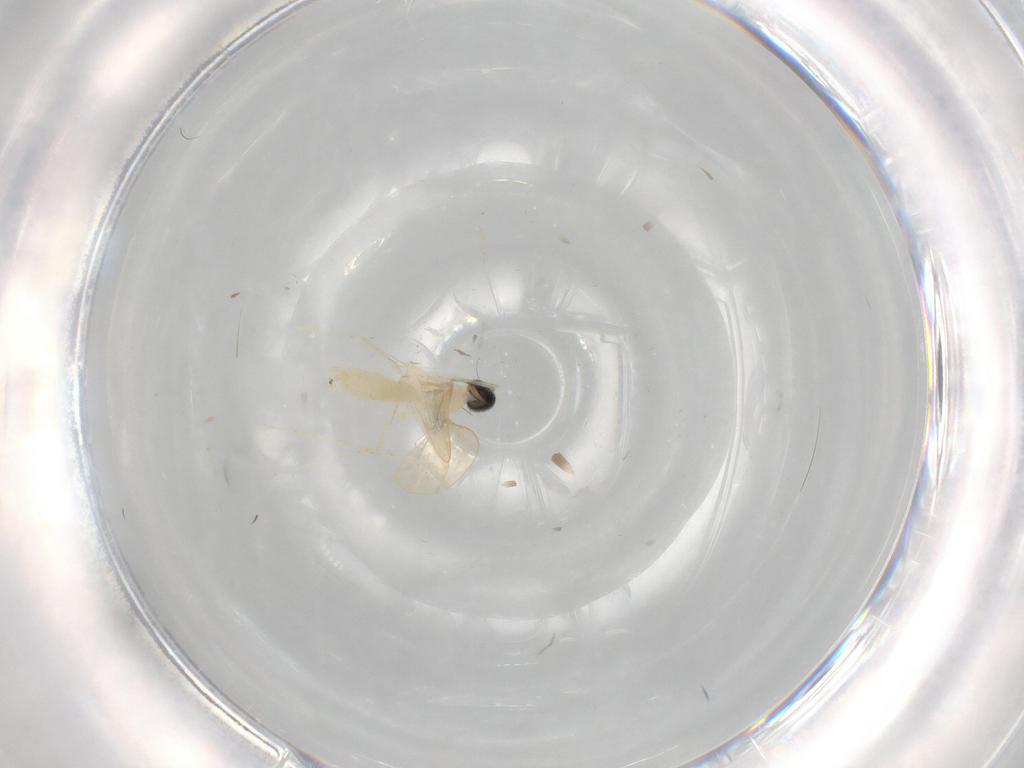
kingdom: Animalia
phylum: Arthropoda
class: Insecta
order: Diptera
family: Cecidomyiidae
